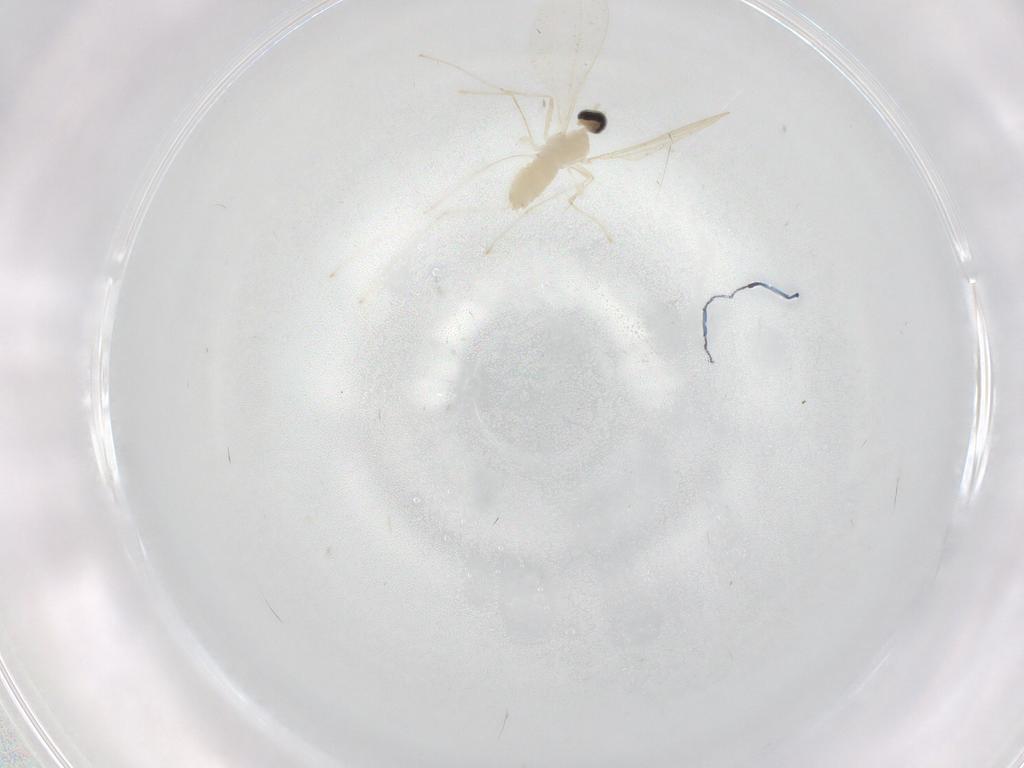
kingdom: Animalia
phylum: Arthropoda
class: Insecta
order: Diptera
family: Cecidomyiidae
